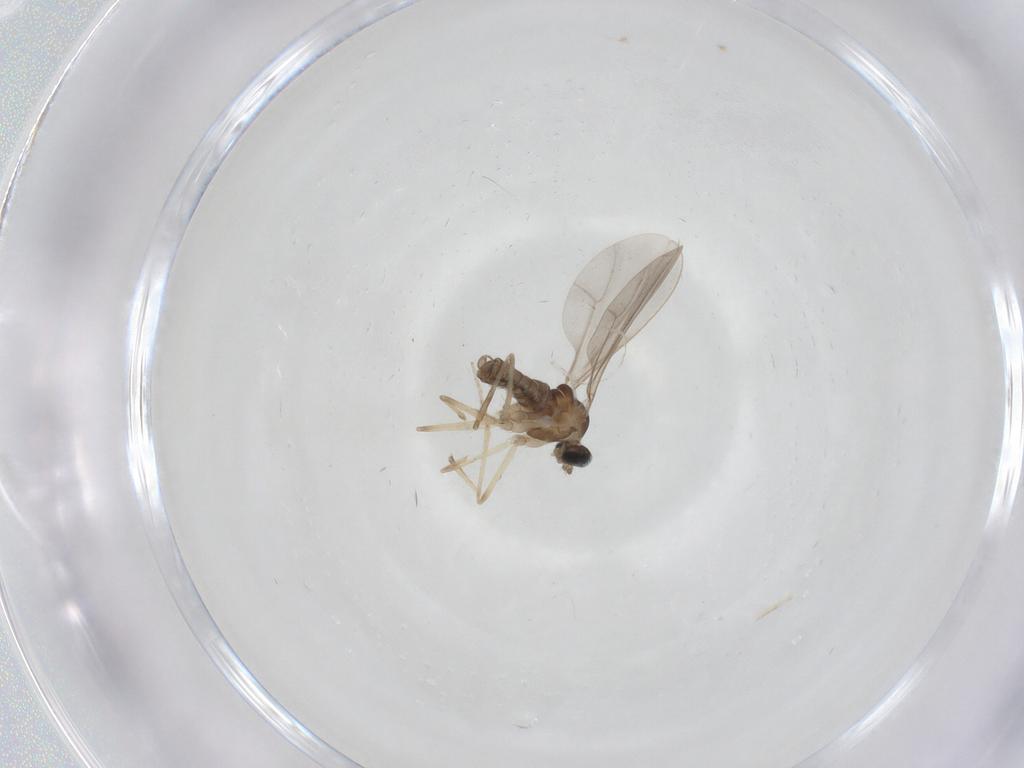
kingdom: Animalia
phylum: Arthropoda
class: Insecta
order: Diptera
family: Cecidomyiidae
